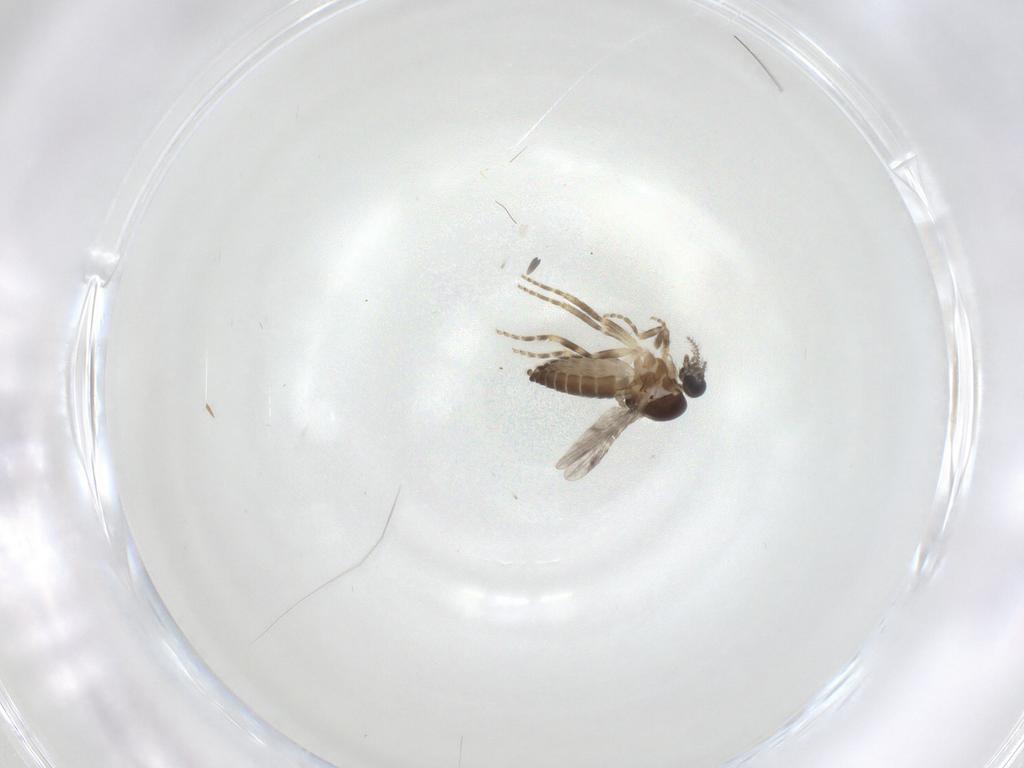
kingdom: Animalia
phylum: Arthropoda
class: Insecta
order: Diptera
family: Ceratopogonidae
